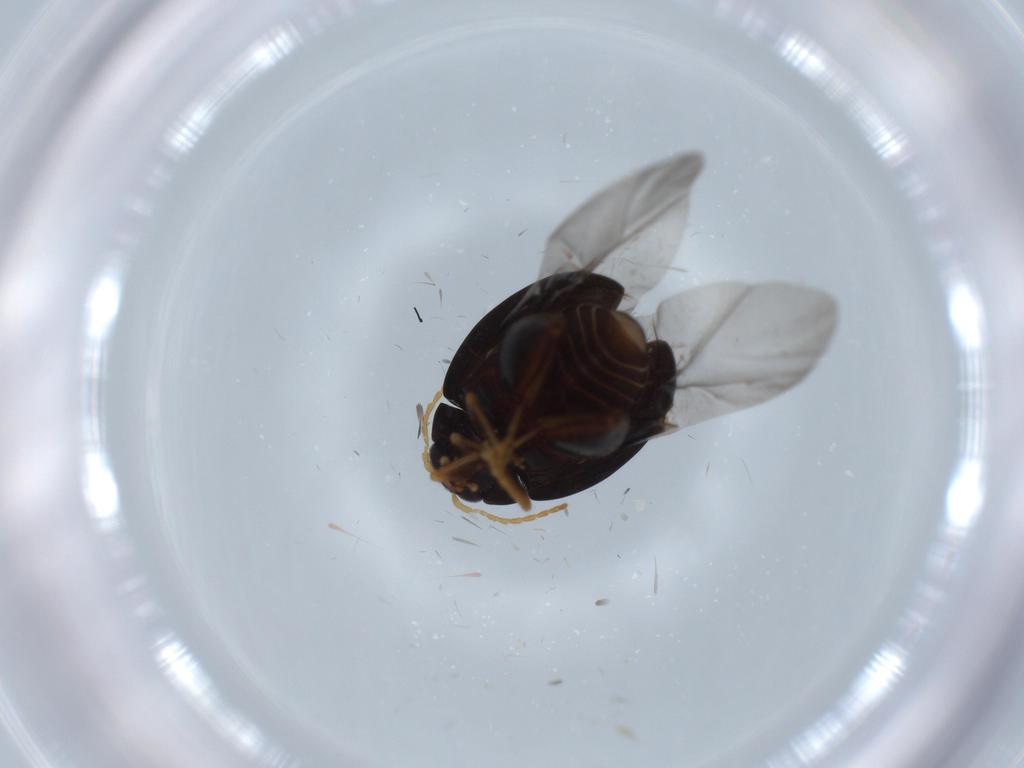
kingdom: Animalia
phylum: Arthropoda
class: Insecta
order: Coleoptera
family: Chrysomelidae
